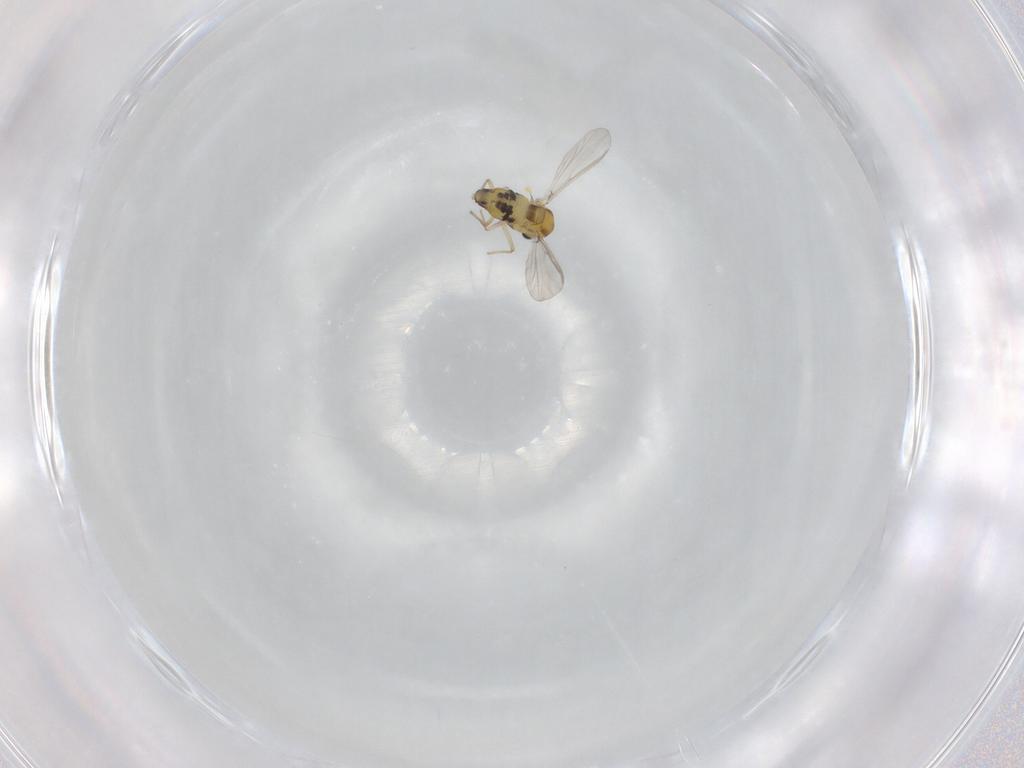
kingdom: Animalia
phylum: Arthropoda
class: Insecta
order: Diptera
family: Chironomidae
